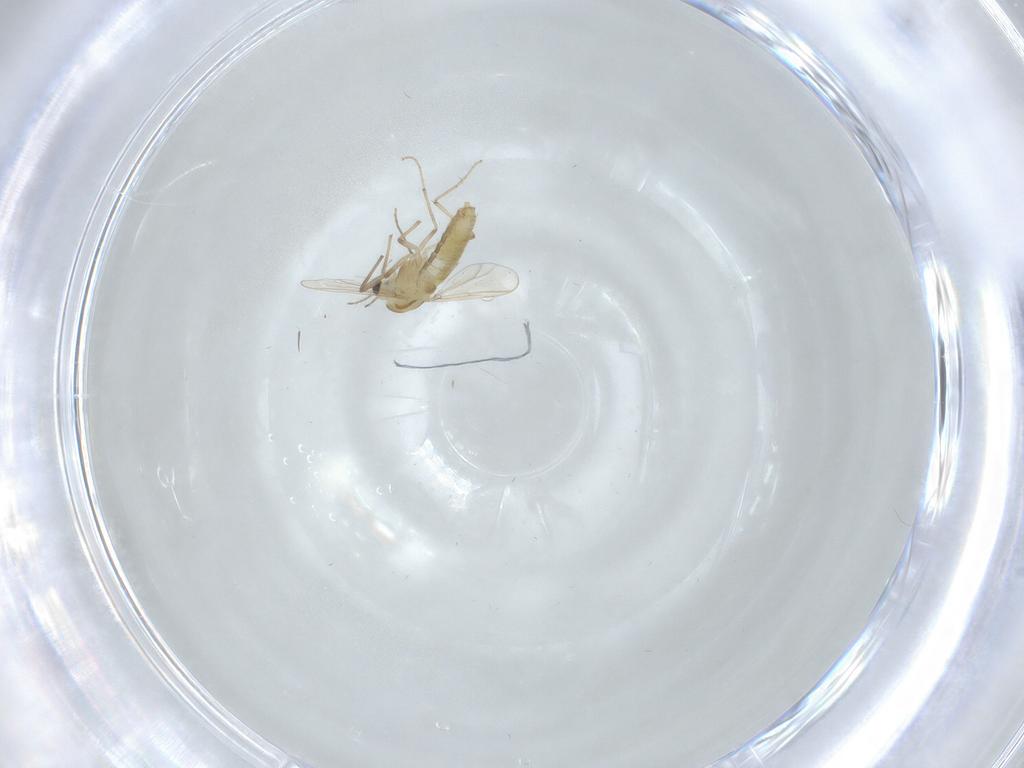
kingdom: Animalia
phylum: Arthropoda
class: Insecta
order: Diptera
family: Chironomidae
